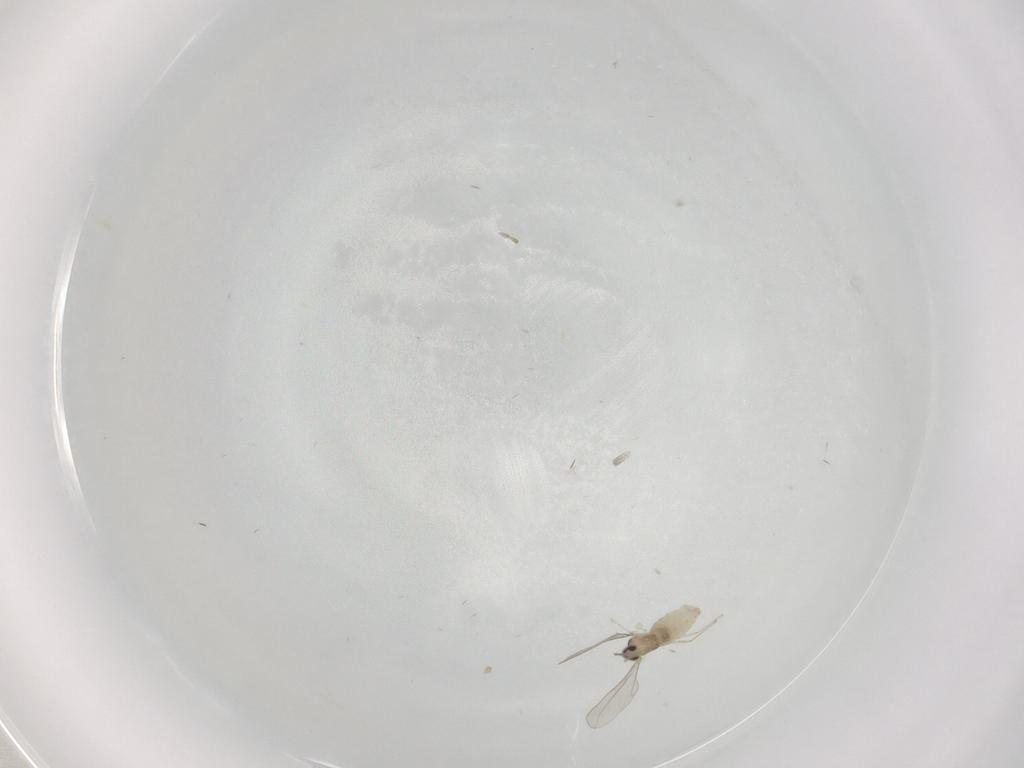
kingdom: Animalia
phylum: Arthropoda
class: Insecta
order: Diptera
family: Cecidomyiidae
